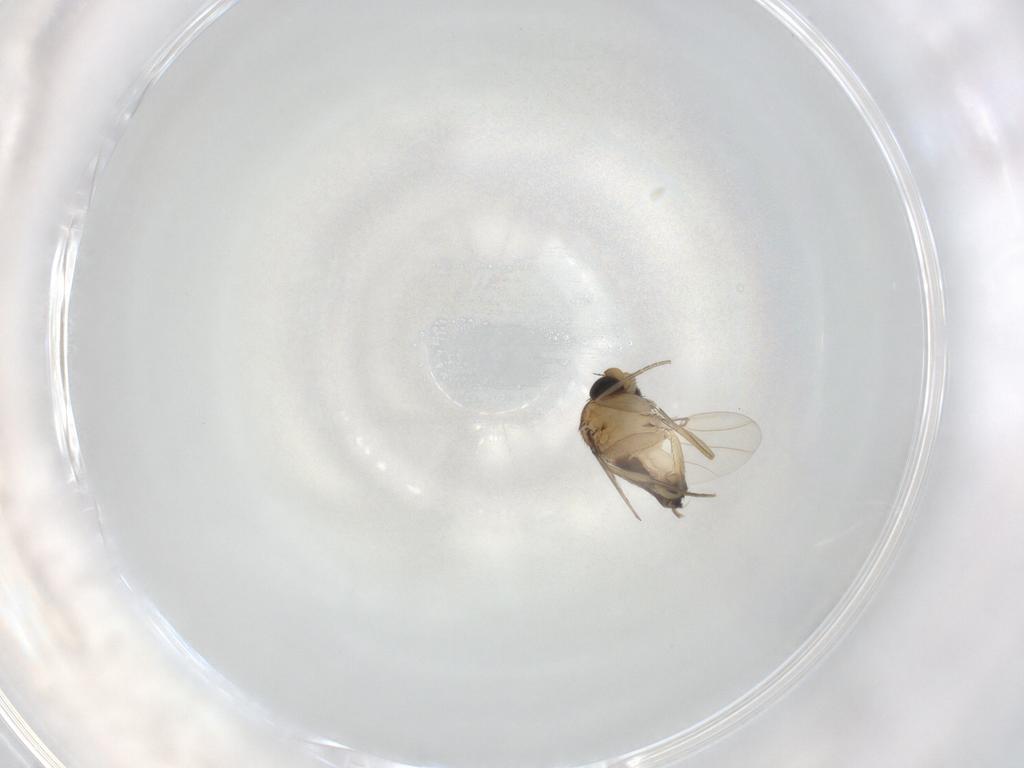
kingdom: Animalia
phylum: Arthropoda
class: Insecta
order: Diptera
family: Phoridae
